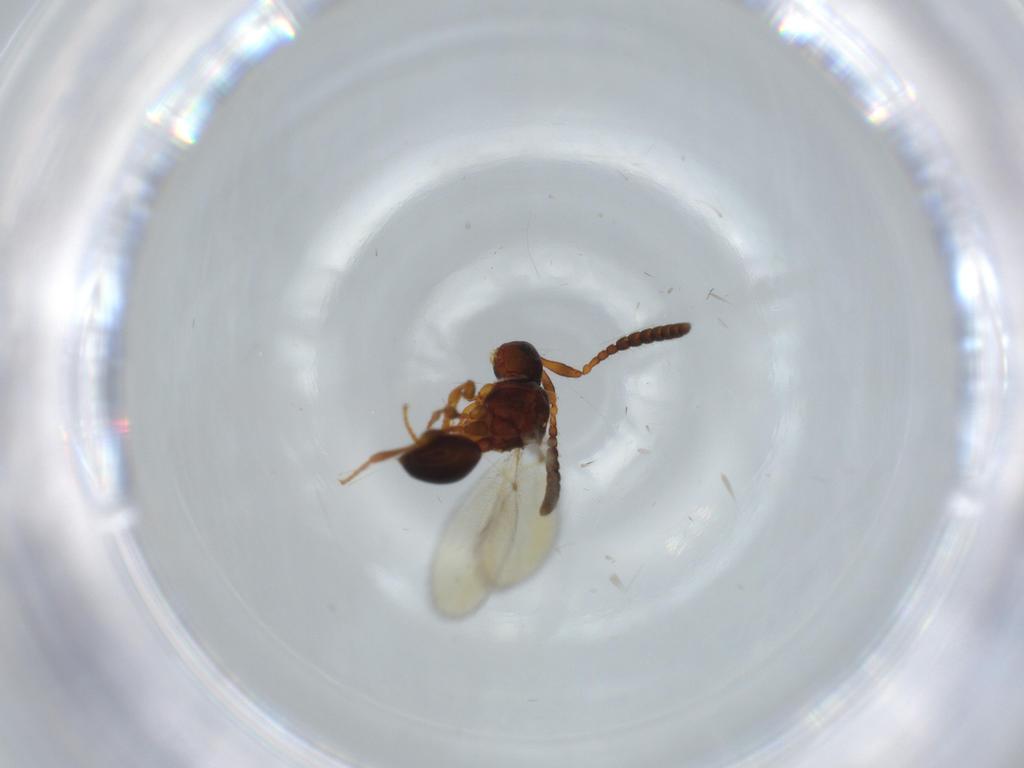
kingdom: Animalia
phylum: Arthropoda
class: Insecta
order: Hymenoptera
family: Diapriidae
